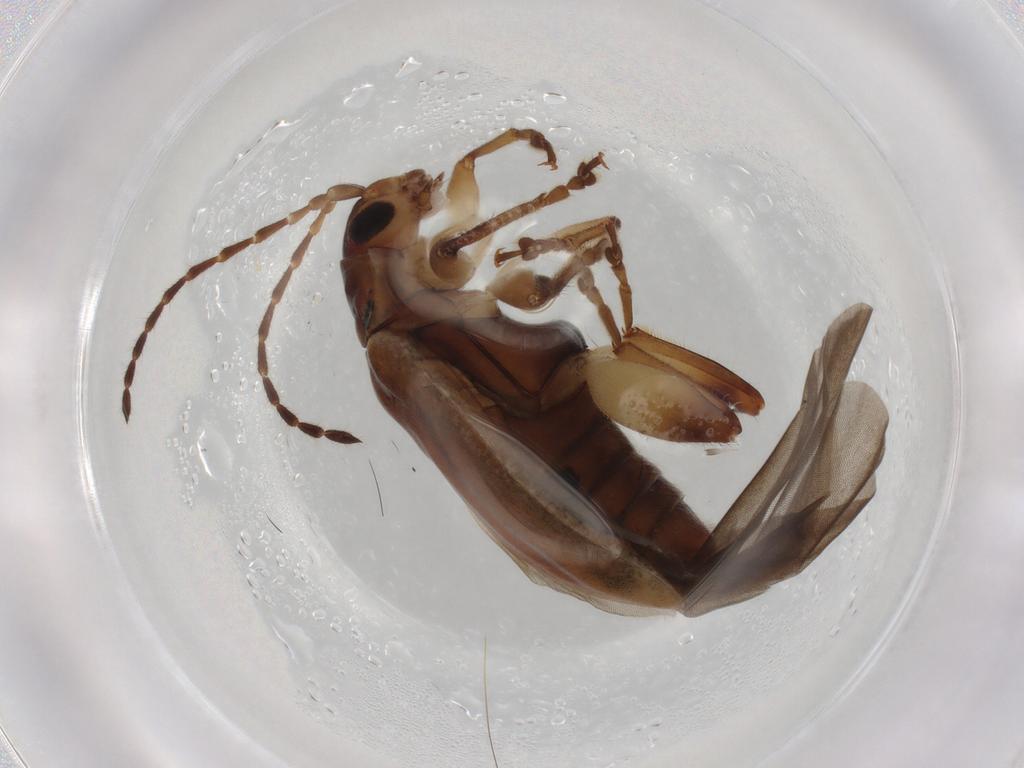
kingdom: Animalia
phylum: Arthropoda
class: Insecta
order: Coleoptera
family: Chrysomelidae
